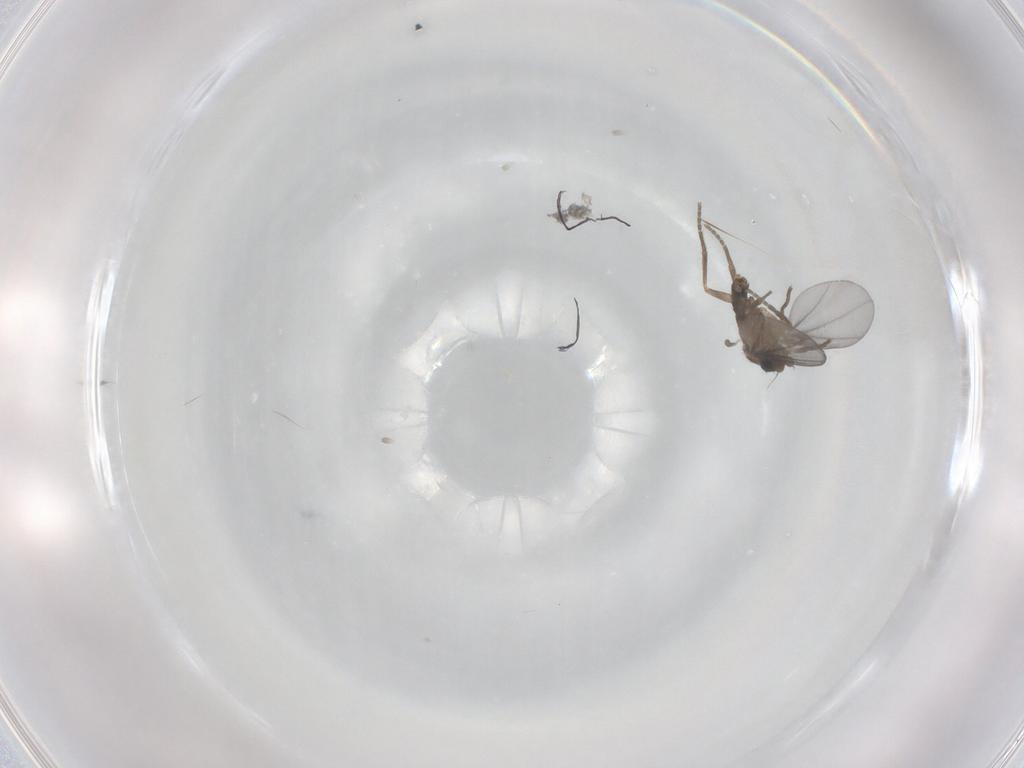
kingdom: Animalia
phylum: Arthropoda
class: Insecta
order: Diptera
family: Phoridae
